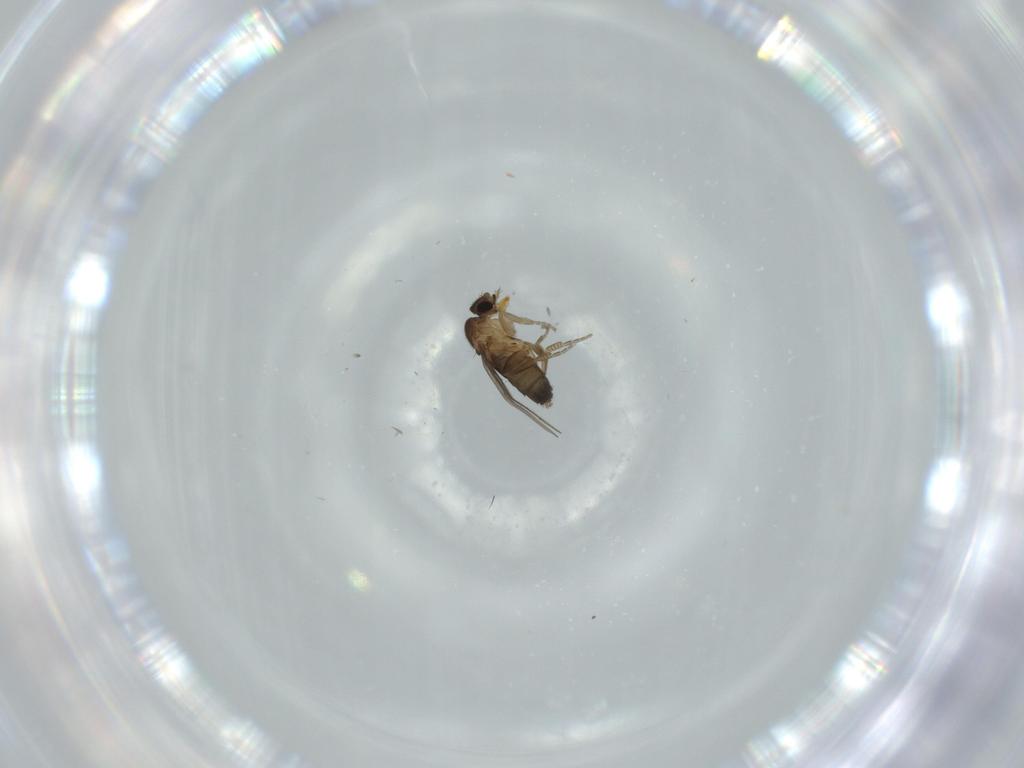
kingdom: Animalia
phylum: Arthropoda
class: Insecta
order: Diptera
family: Phoridae
